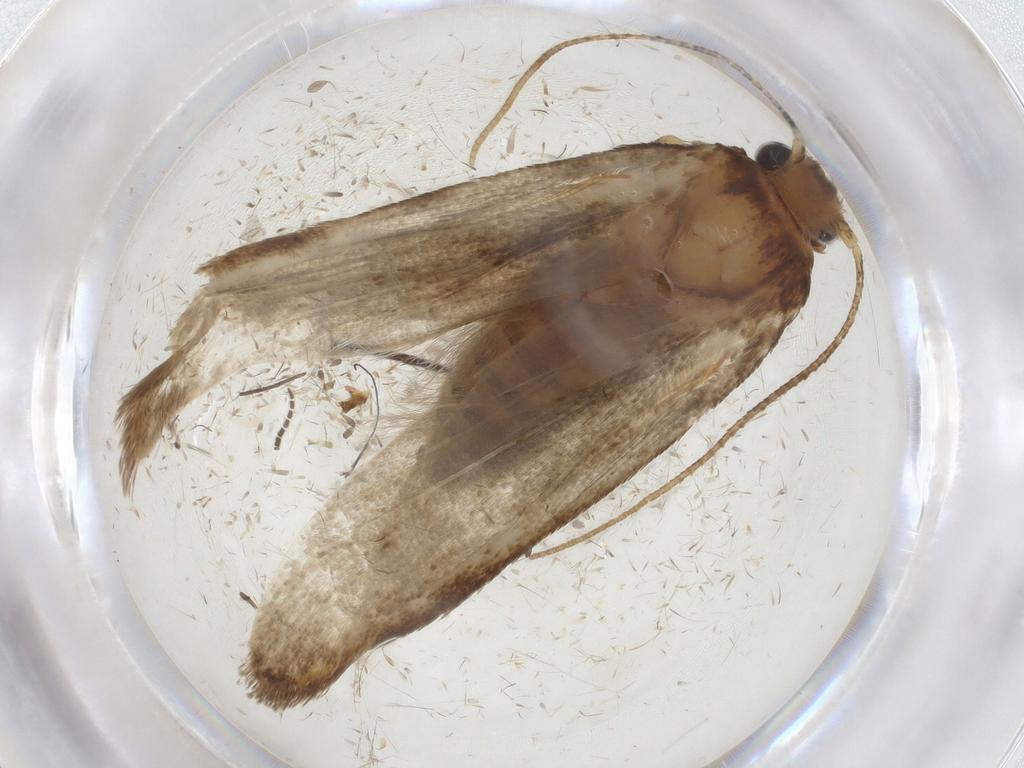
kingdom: Animalia
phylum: Arthropoda
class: Insecta
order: Lepidoptera
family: Blastobasidae
